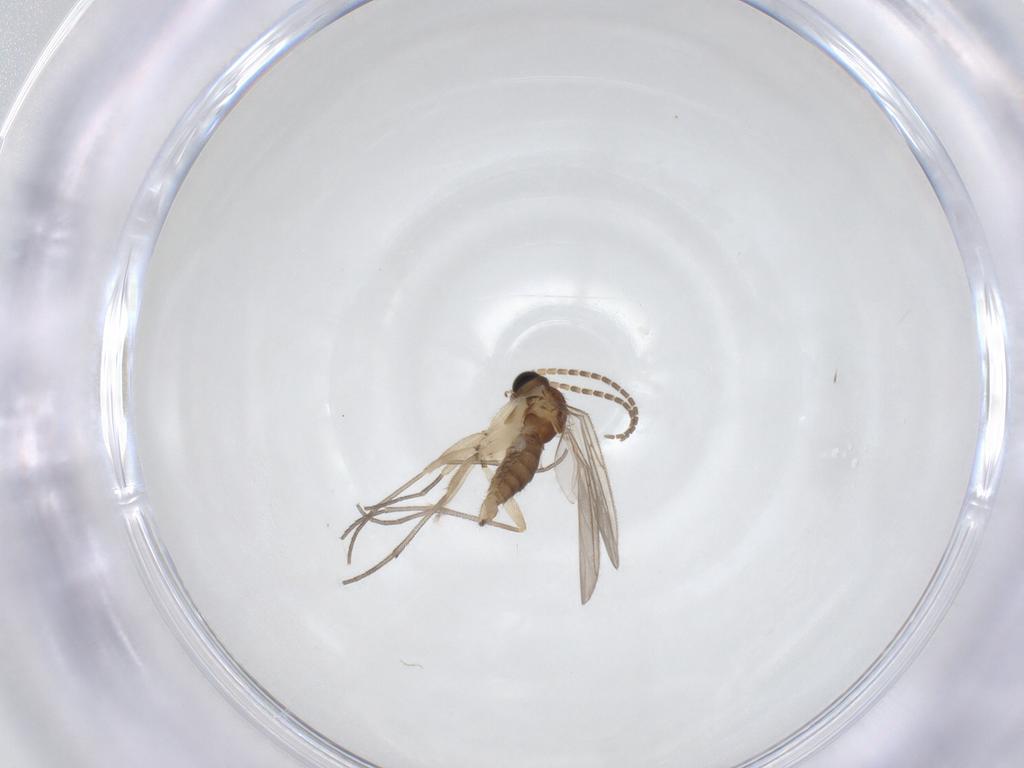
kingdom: Animalia
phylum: Arthropoda
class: Insecta
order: Diptera
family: Sciaridae
